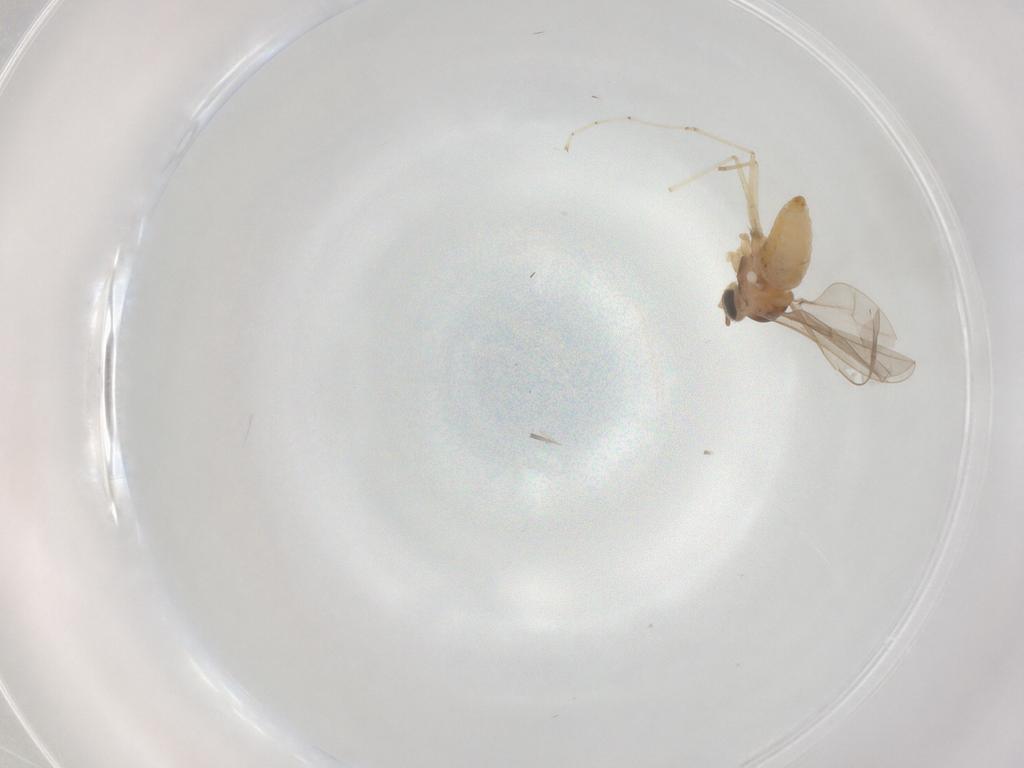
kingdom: Animalia
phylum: Arthropoda
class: Insecta
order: Diptera
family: Cecidomyiidae
